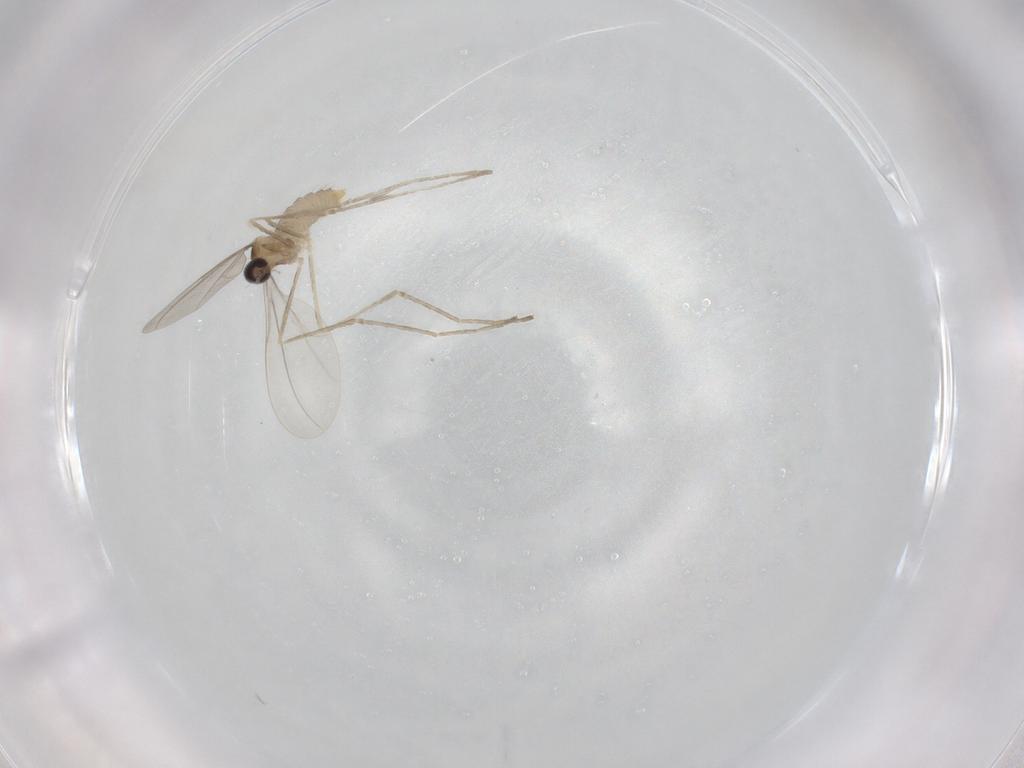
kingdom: Animalia
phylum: Arthropoda
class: Insecta
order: Diptera
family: Cecidomyiidae
